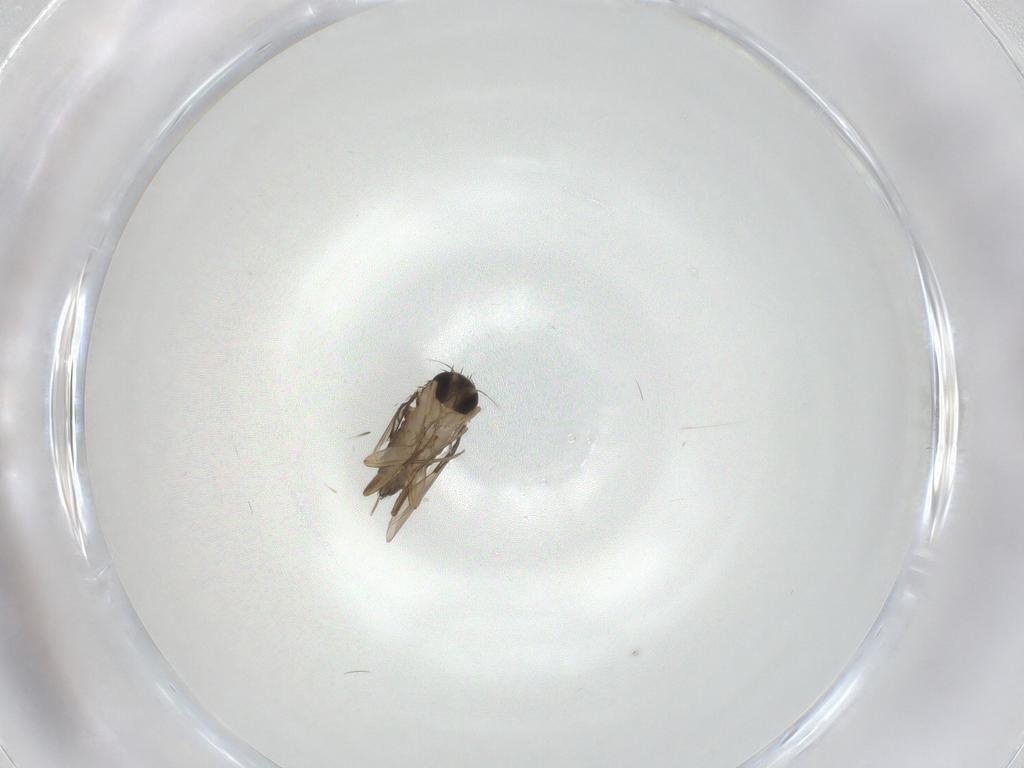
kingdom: Animalia
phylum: Arthropoda
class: Insecta
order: Diptera
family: Phoridae
